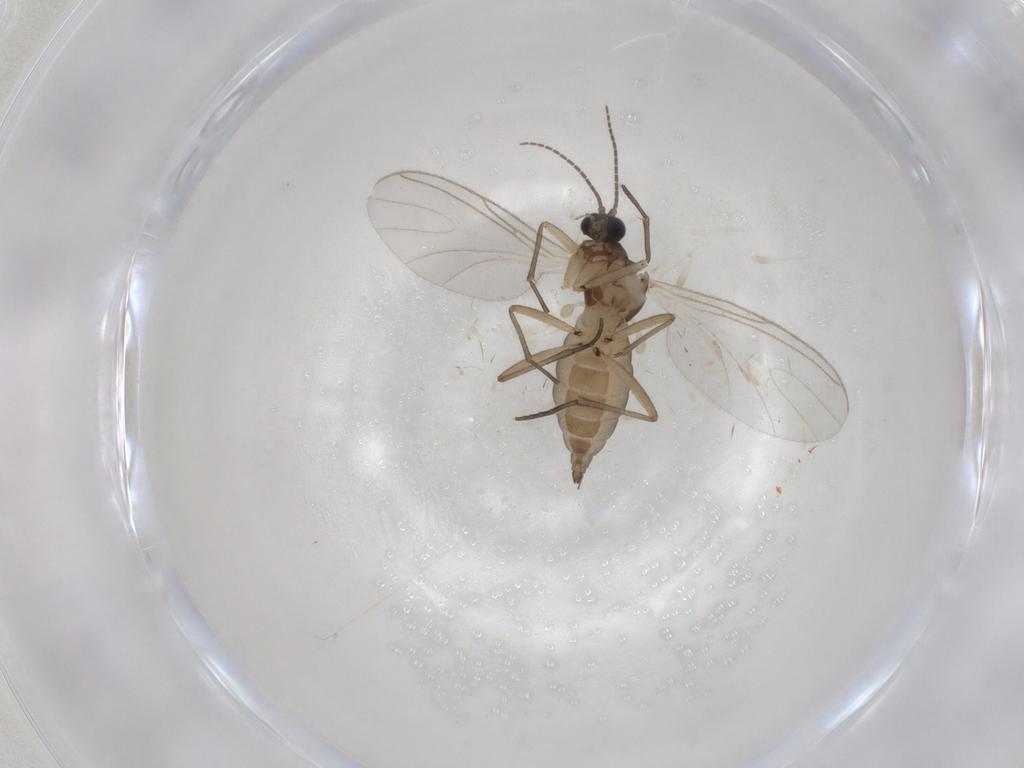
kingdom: Animalia
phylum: Arthropoda
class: Insecta
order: Diptera
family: Sciaridae
